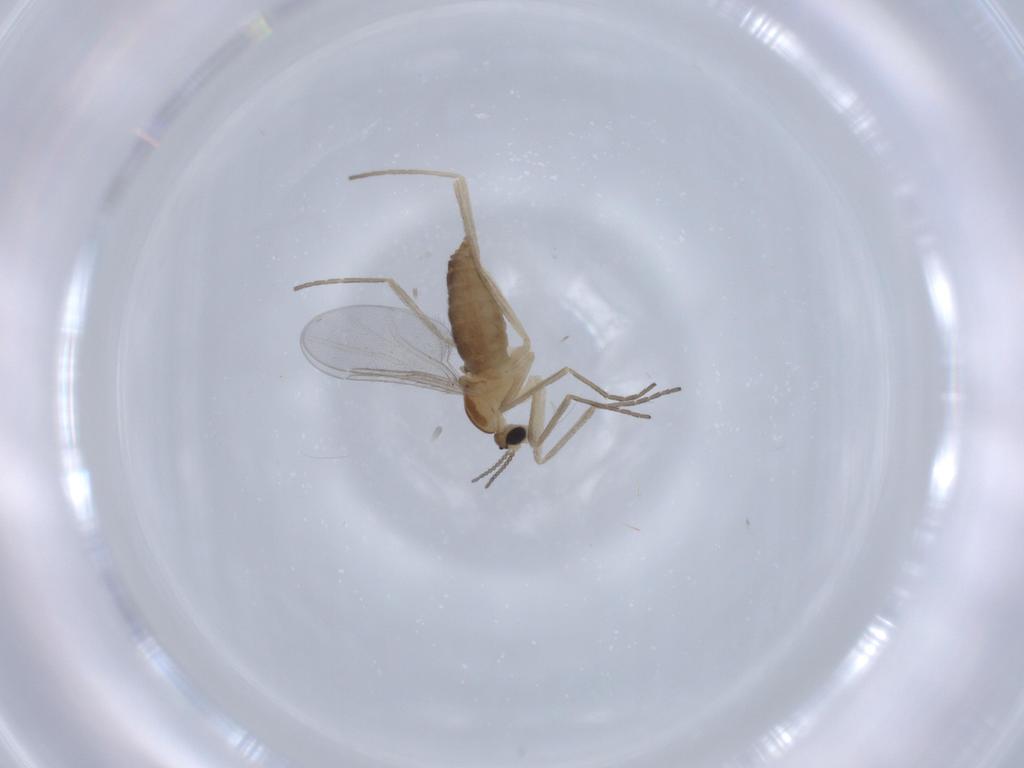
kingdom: Animalia
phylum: Arthropoda
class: Insecta
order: Diptera
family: Cecidomyiidae
